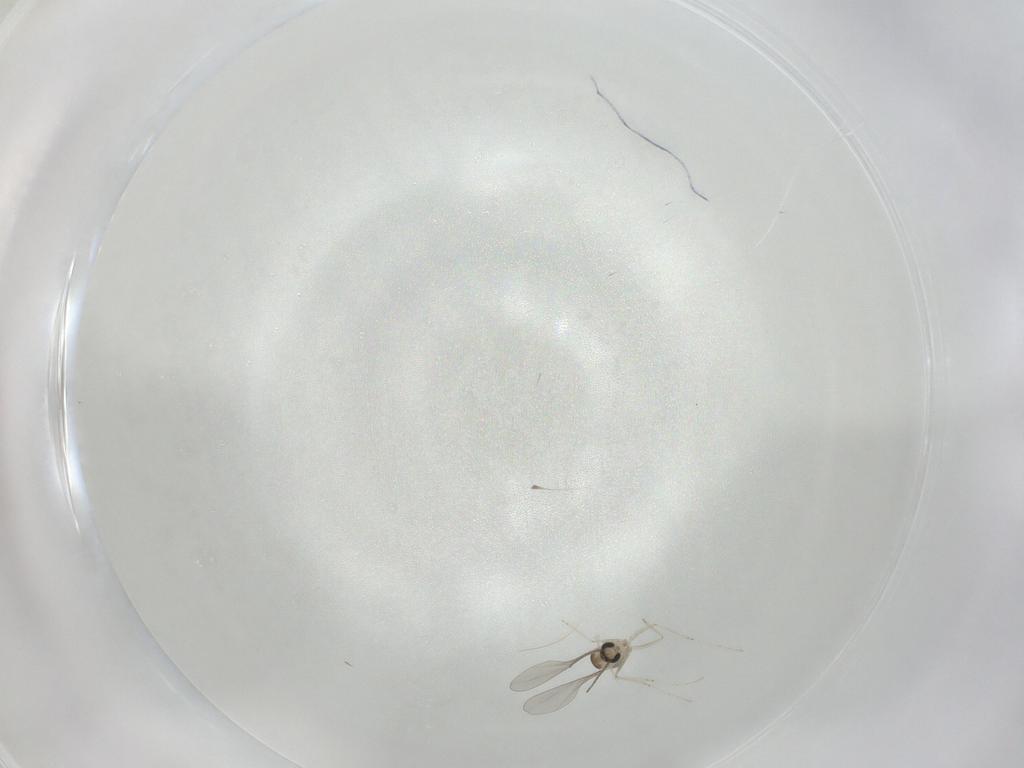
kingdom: Animalia
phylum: Arthropoda
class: Insecta
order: Diptera
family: Cecidomyiidae
